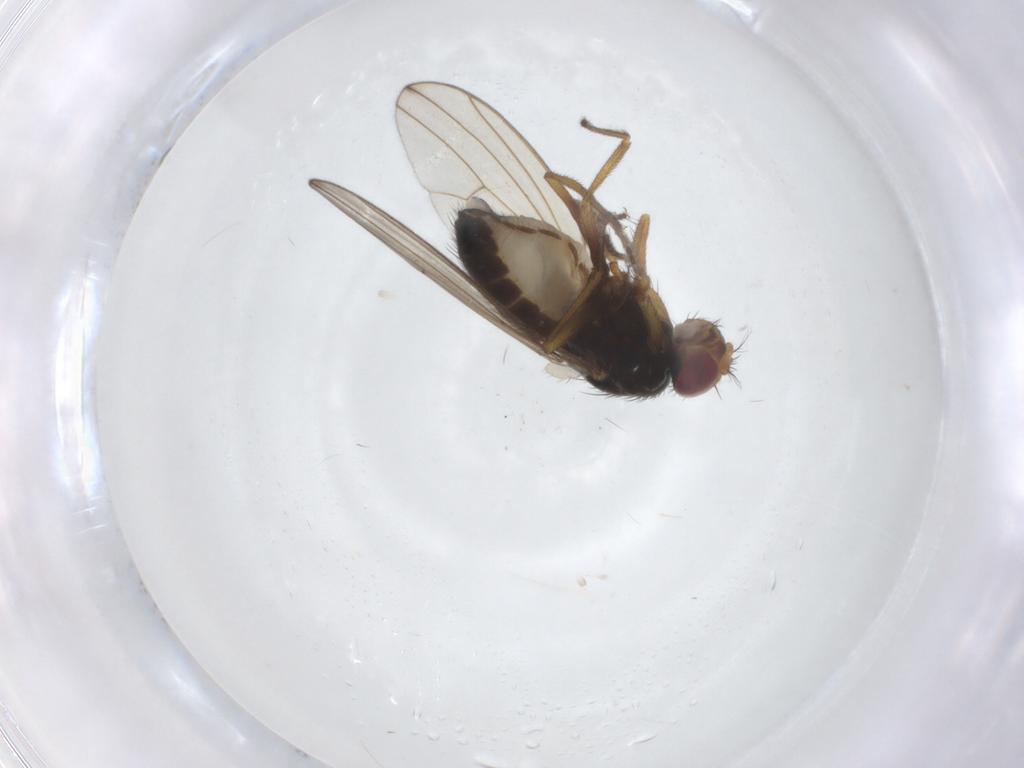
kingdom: Animalia
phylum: Arthropoda
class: Insecta
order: Diptera
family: Drosophilidae
